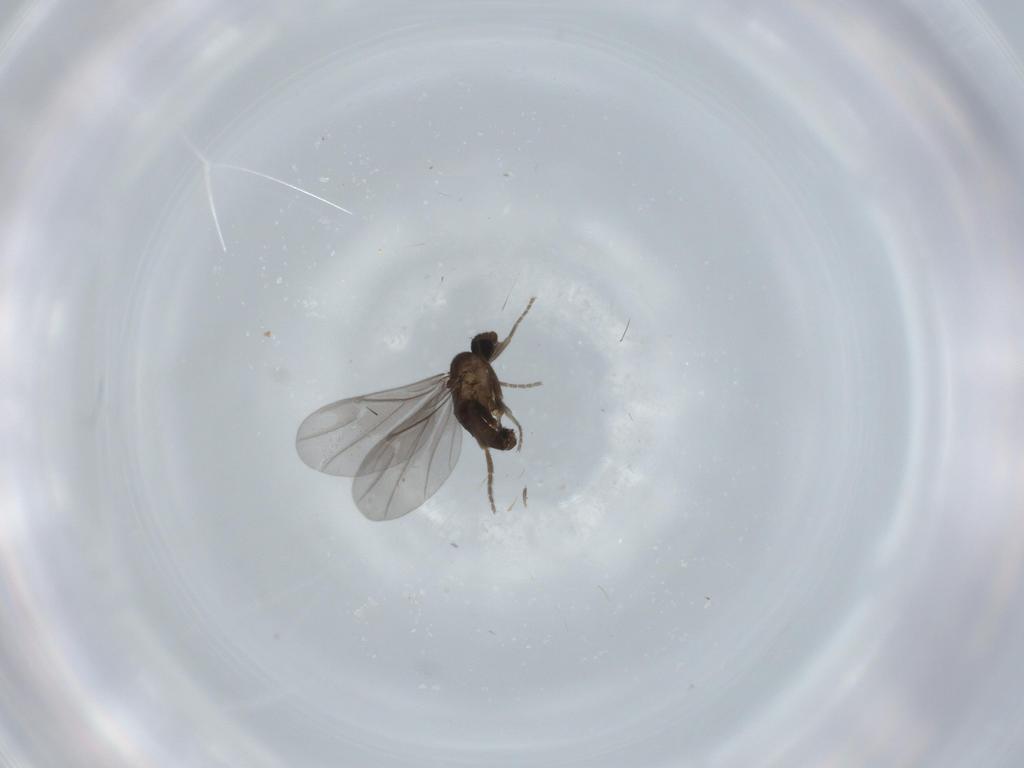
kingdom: Animalia
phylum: Arthropoda
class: Insecta
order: Diptera
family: Phoridae
